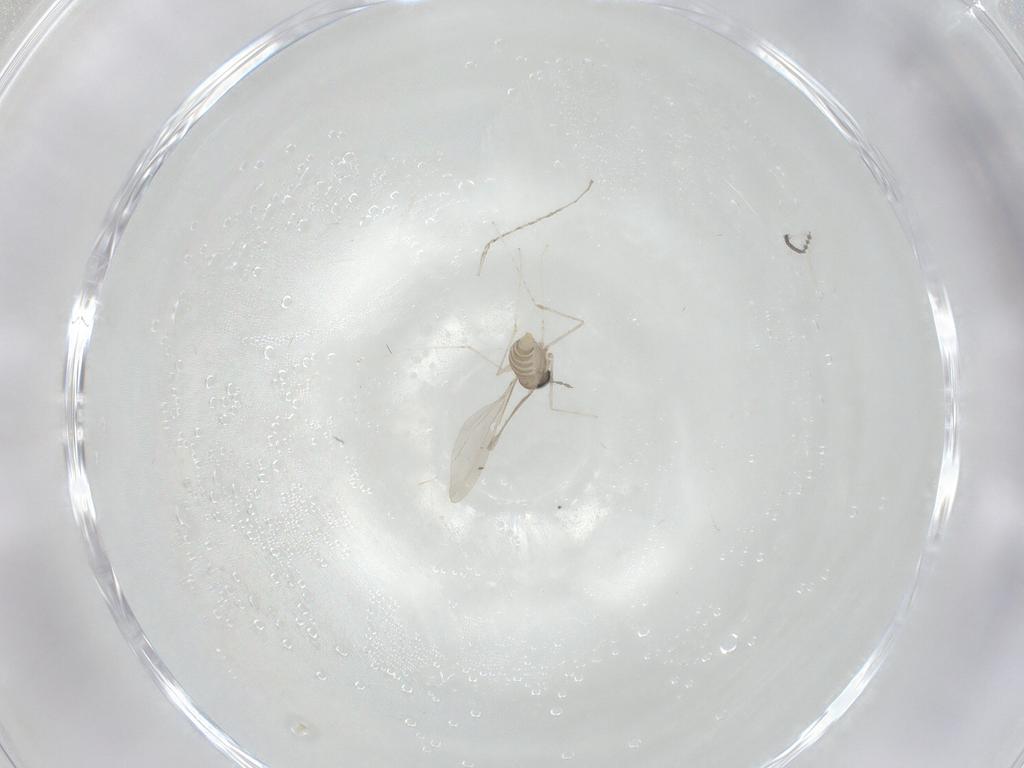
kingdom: Animalia
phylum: Arthropoda
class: Insecta
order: Diptera
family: Cecidomyiidae
